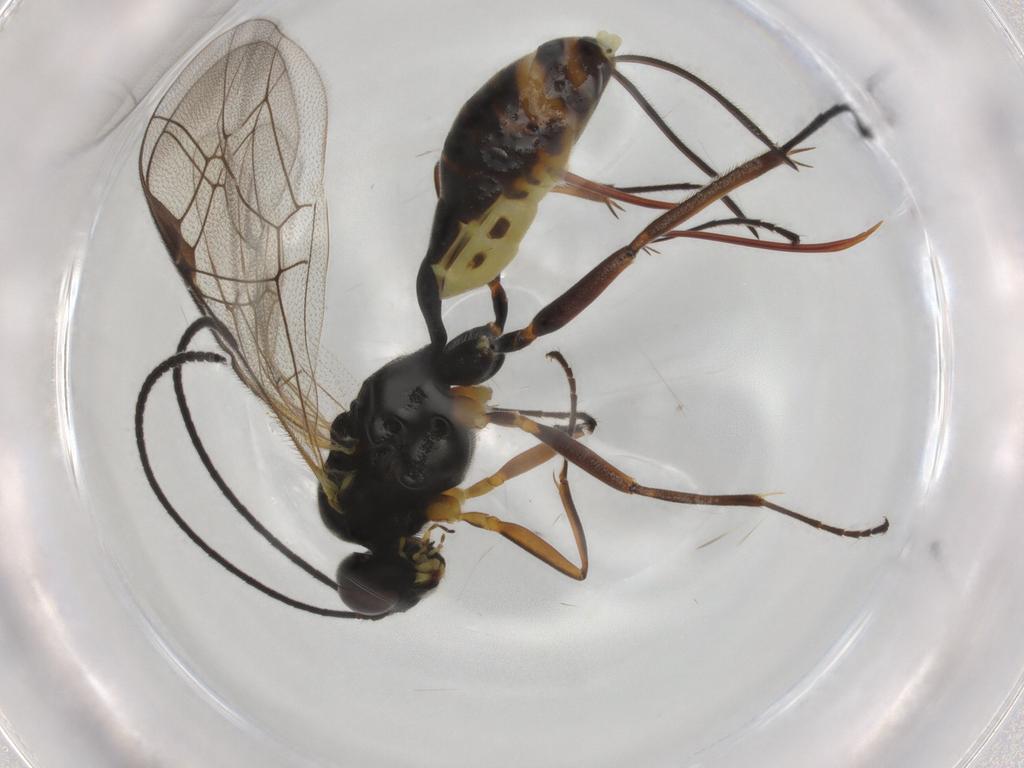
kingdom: Animalia
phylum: Arthropoda
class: Insecta
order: Hymenoptera
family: Ichneumonidae
